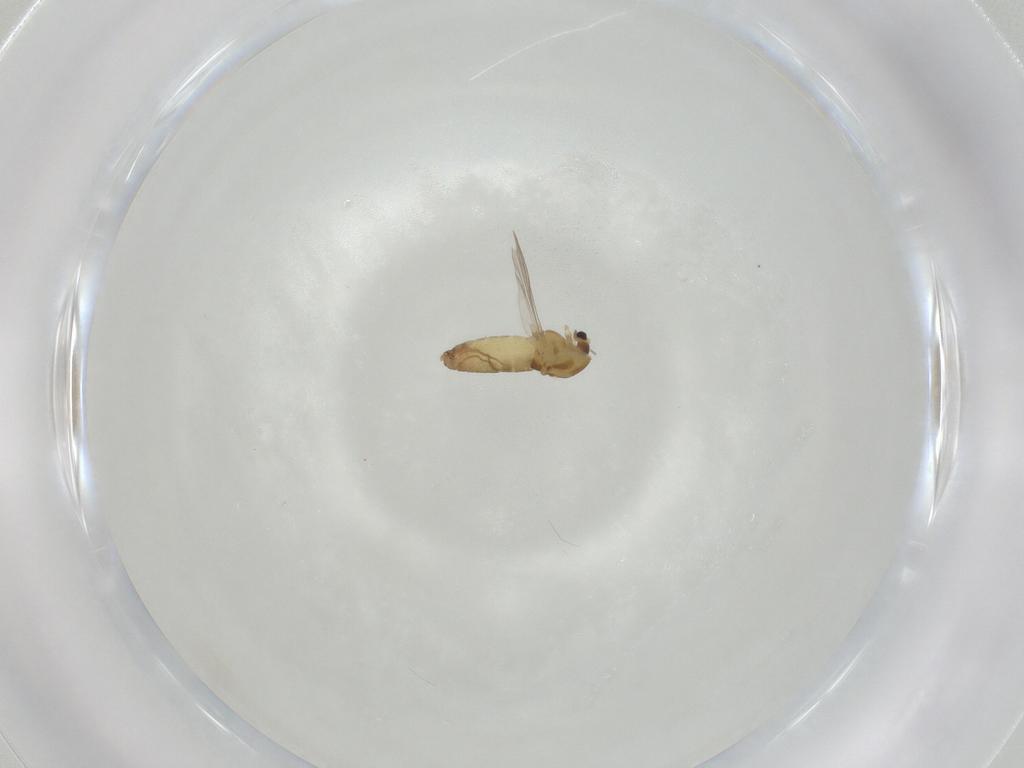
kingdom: Animalia
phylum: Arthropoda
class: Insecta
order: Diptera
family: Chironomidae
